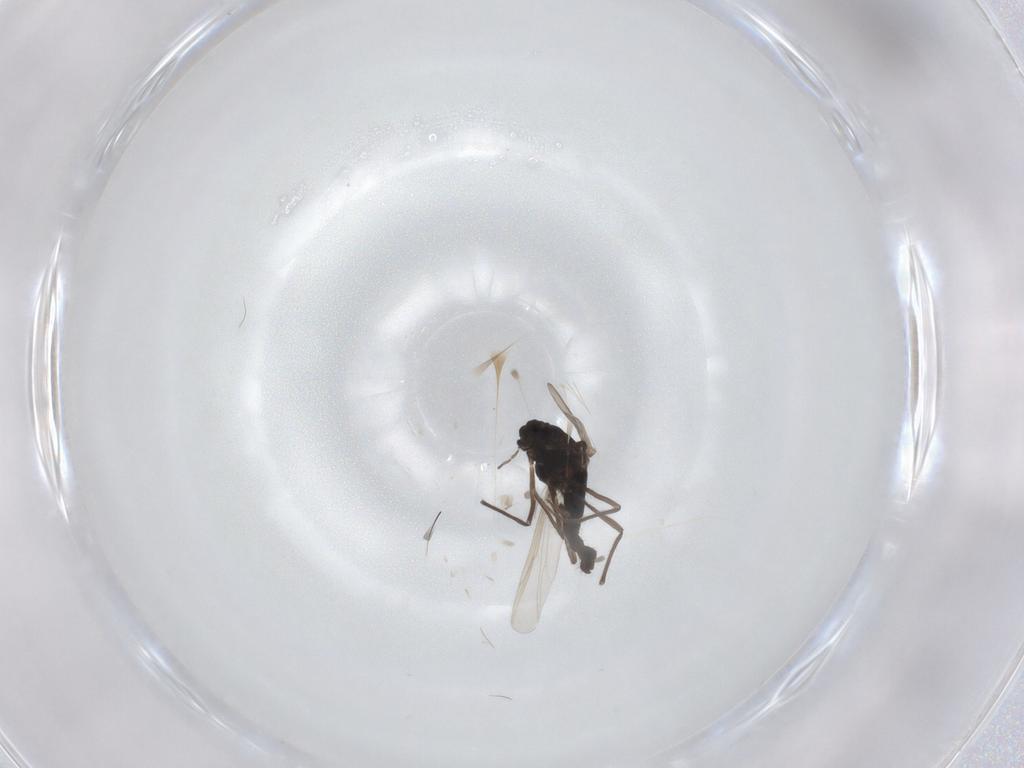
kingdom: Animalia
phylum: Arthropoda
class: Insecta
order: Diptera
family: Chironomidae
